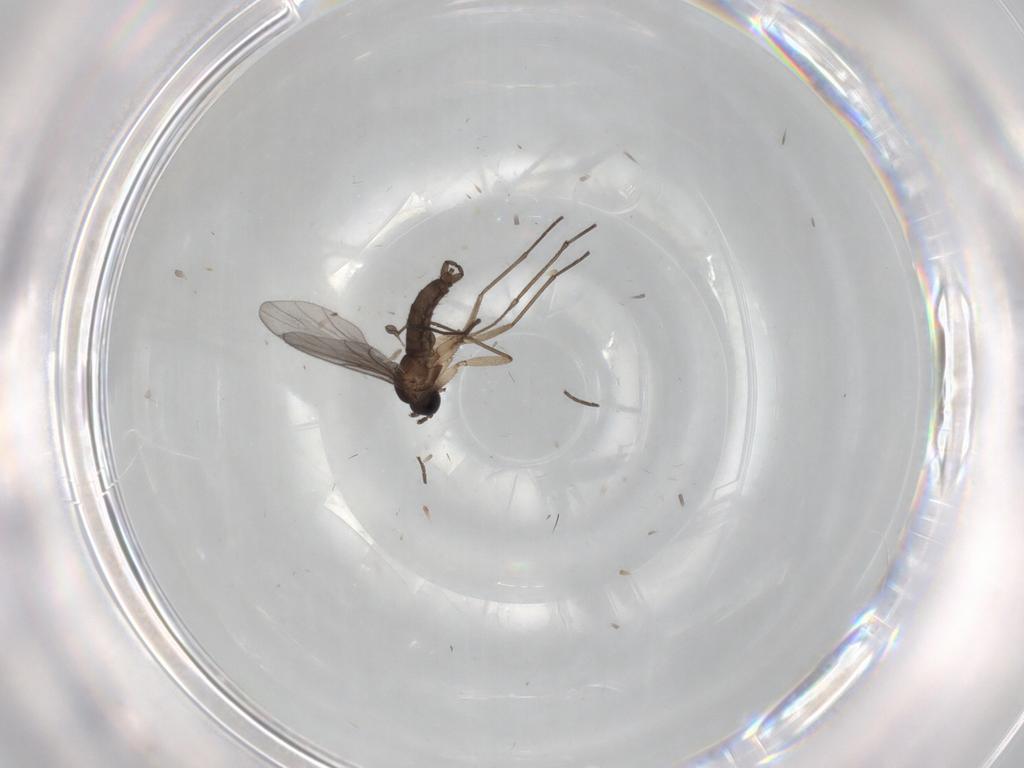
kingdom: Animalia
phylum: Arthropoda
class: Insecta
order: Diptera
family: Chironomidae
